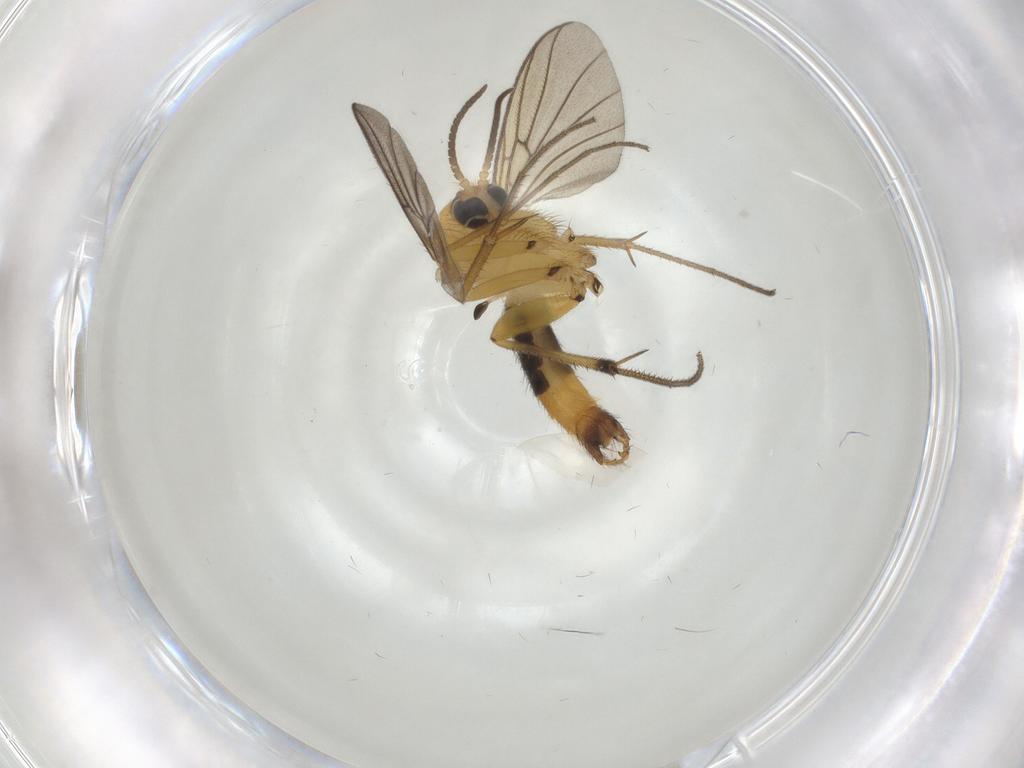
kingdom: Animalia
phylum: Arthropoda
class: Insecta
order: Diptera
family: Mycetophilidae
